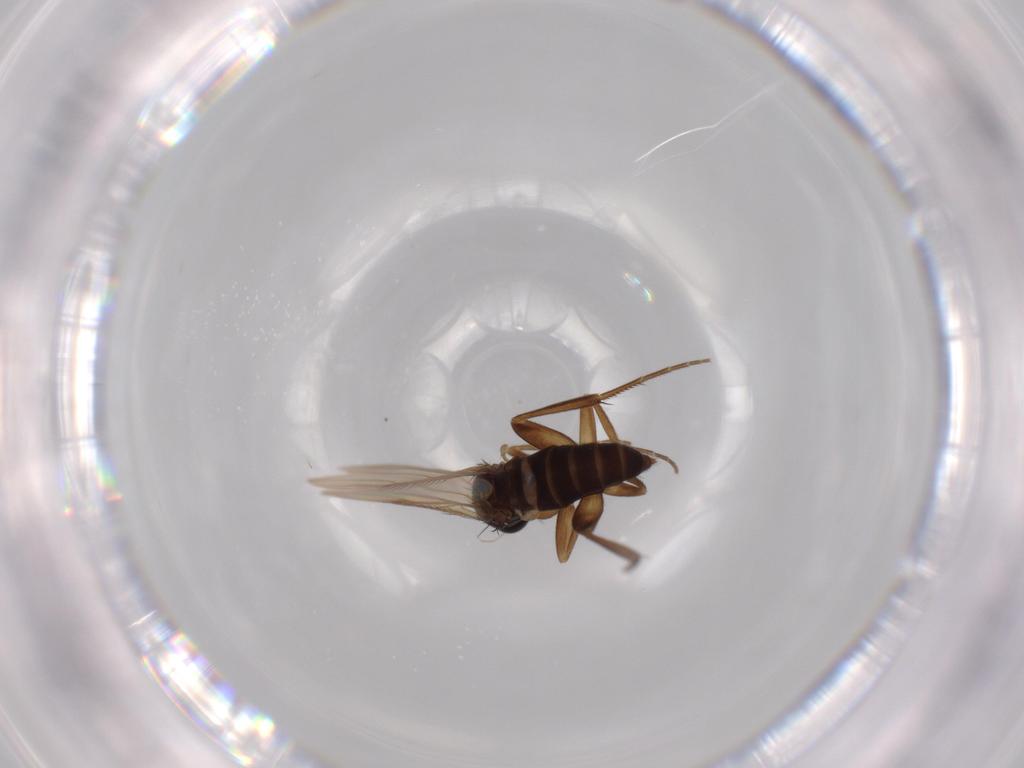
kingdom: Animalia
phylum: Arthropoda
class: Insecta
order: Diptera
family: Phoridae
